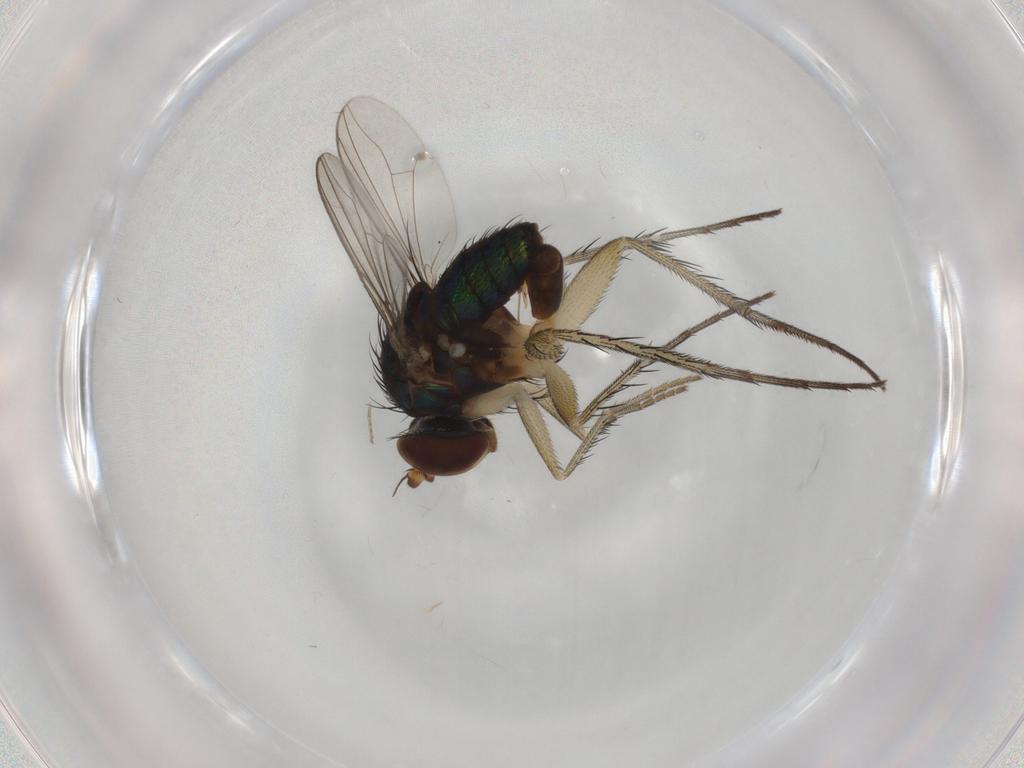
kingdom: Animalia
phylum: Arthropoda
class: Insecta
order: Diptera
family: Dolichopodidae
